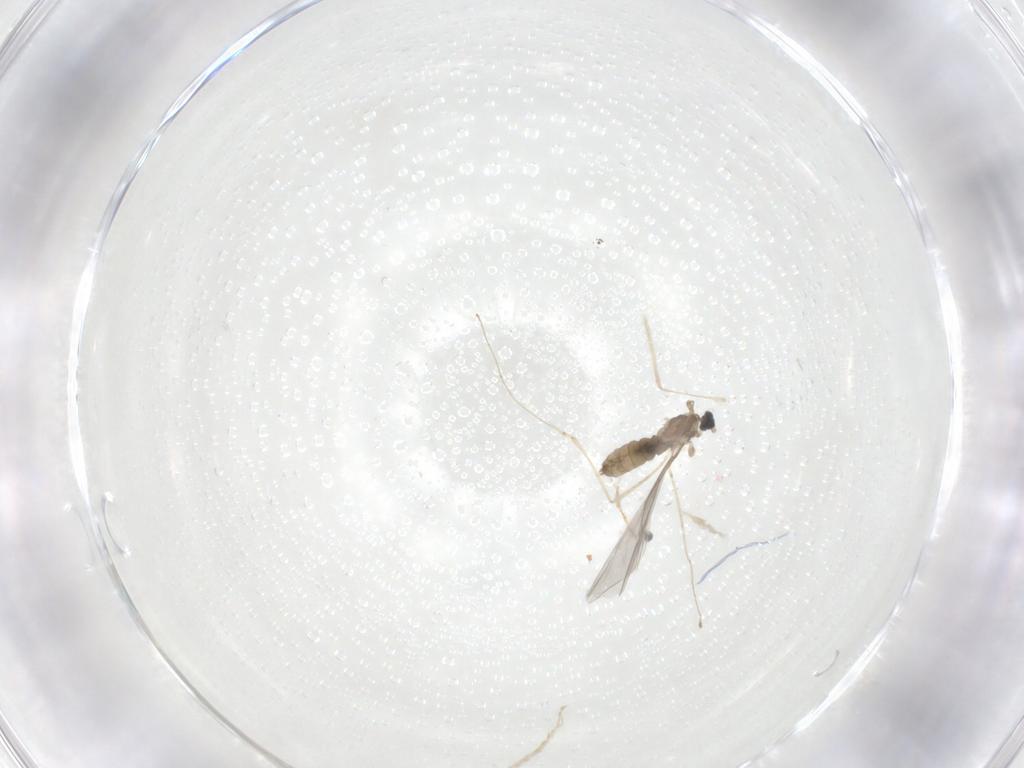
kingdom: Animalia
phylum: Arthropoda
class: Insecta
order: Diptera
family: Cecidomyiidae
